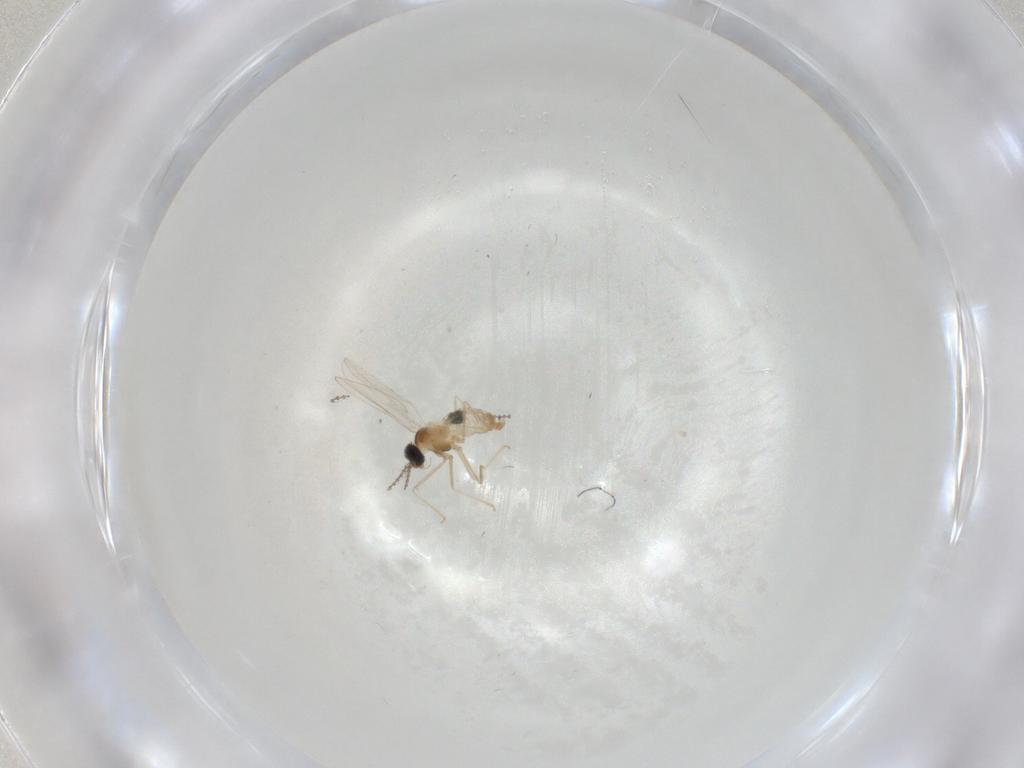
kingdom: Animalia
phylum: Arthropoda
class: Insecta
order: Diptera
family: Cecidomyiidae
